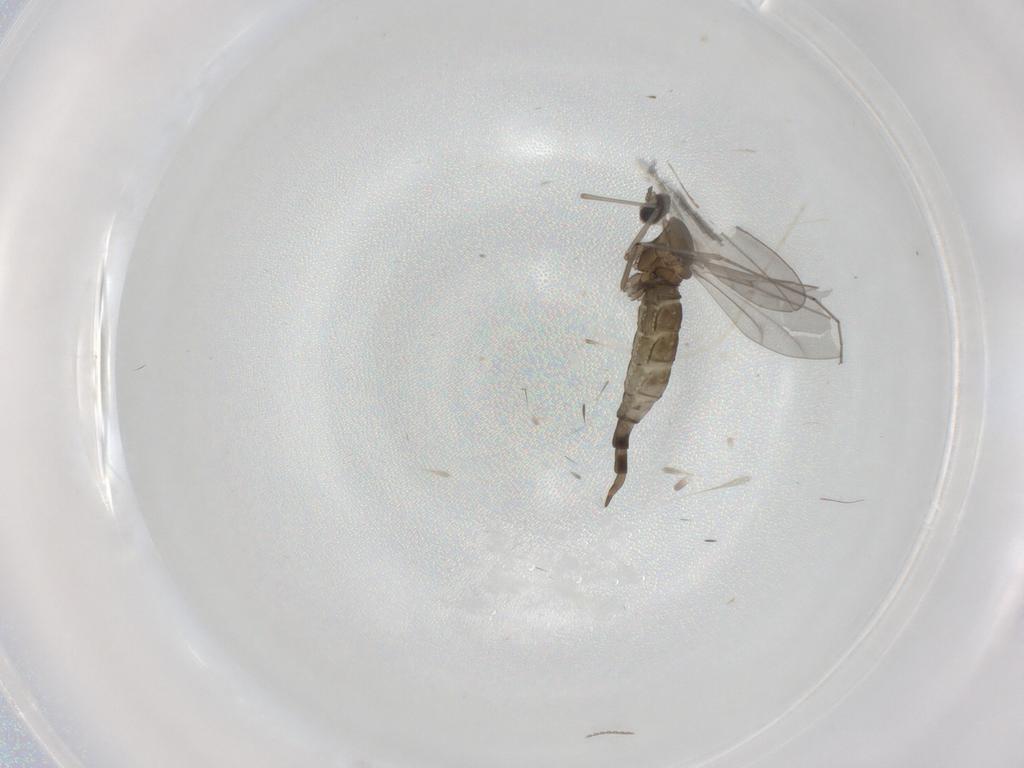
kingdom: Animalia
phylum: Arthropoda
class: Insecta
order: Diptera
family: Cecidomyiidae
